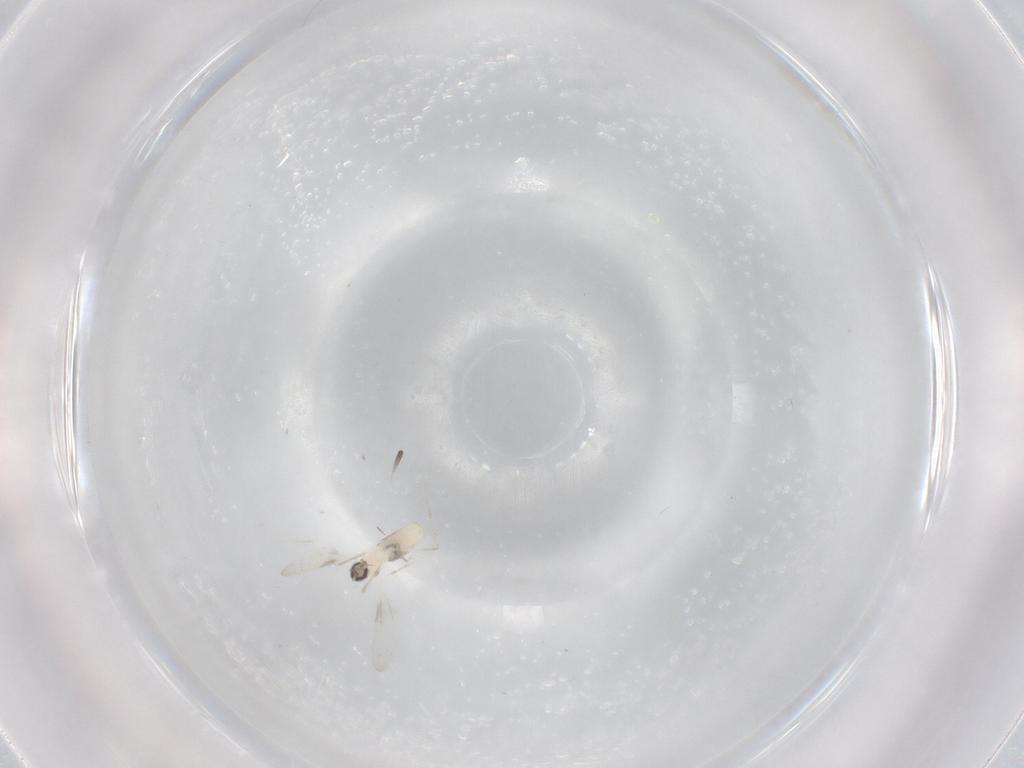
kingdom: Animalia
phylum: Arthropoda
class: Insecta
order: Diptera
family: Cecidomyiidae
